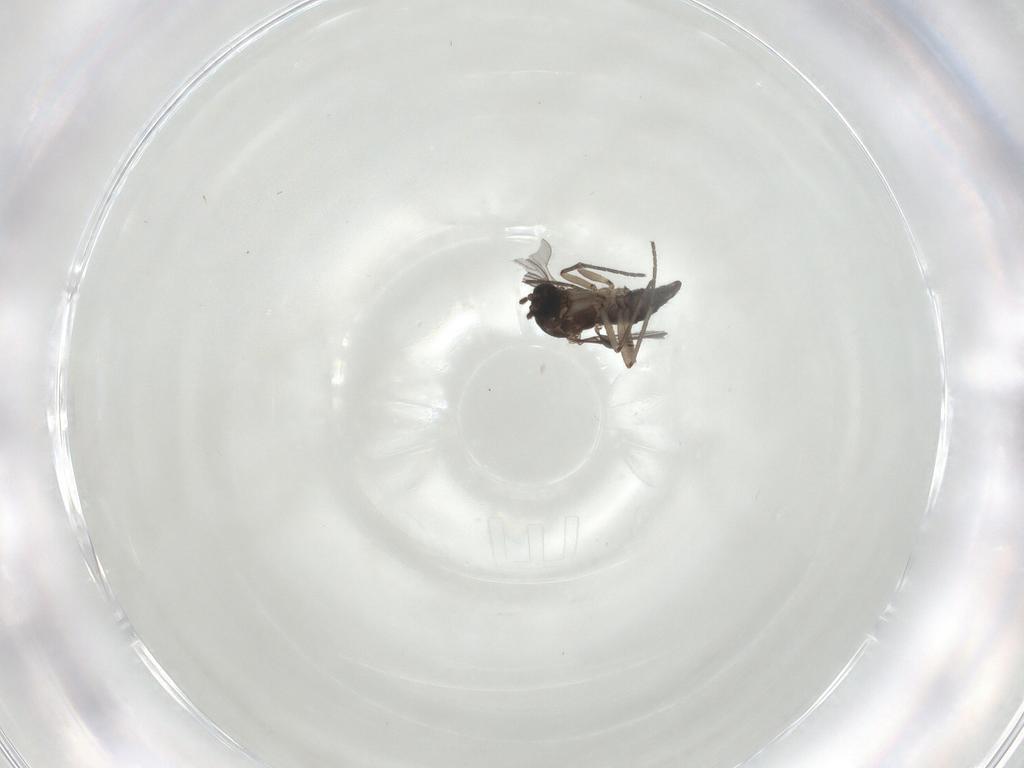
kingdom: Animalia
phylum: Arthropoda
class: Insecta
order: Diptera
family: Sciaridae
